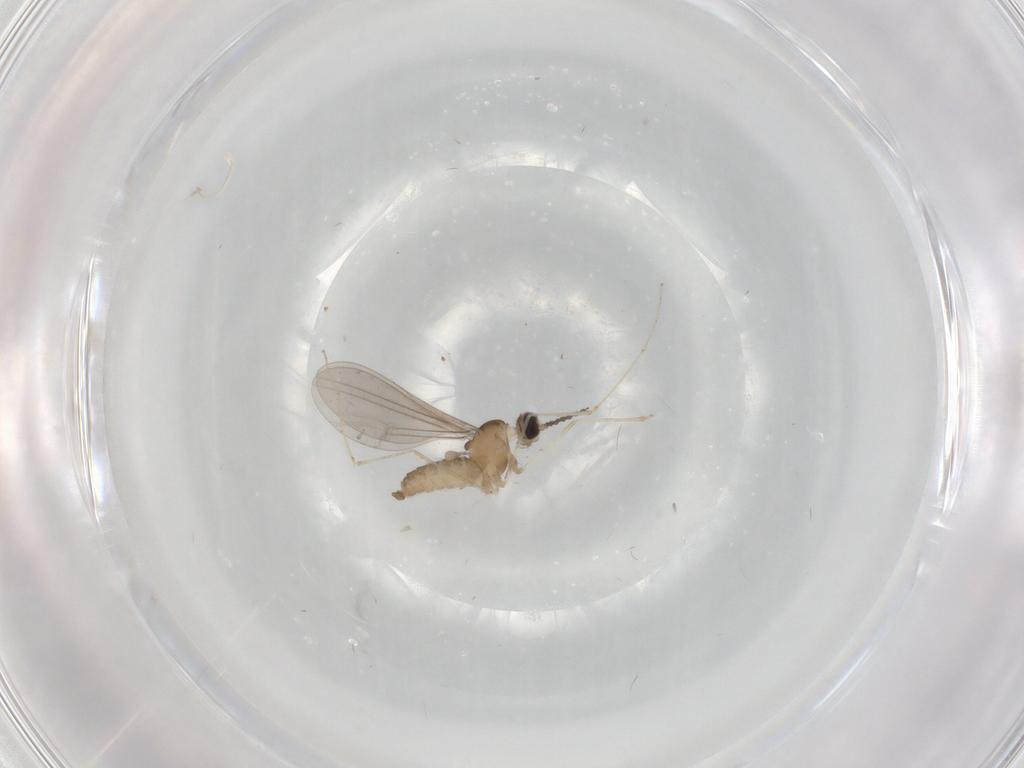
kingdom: Animalia
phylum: Arthropoda
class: Insecta
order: Diptera
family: Cecidomyiidae
